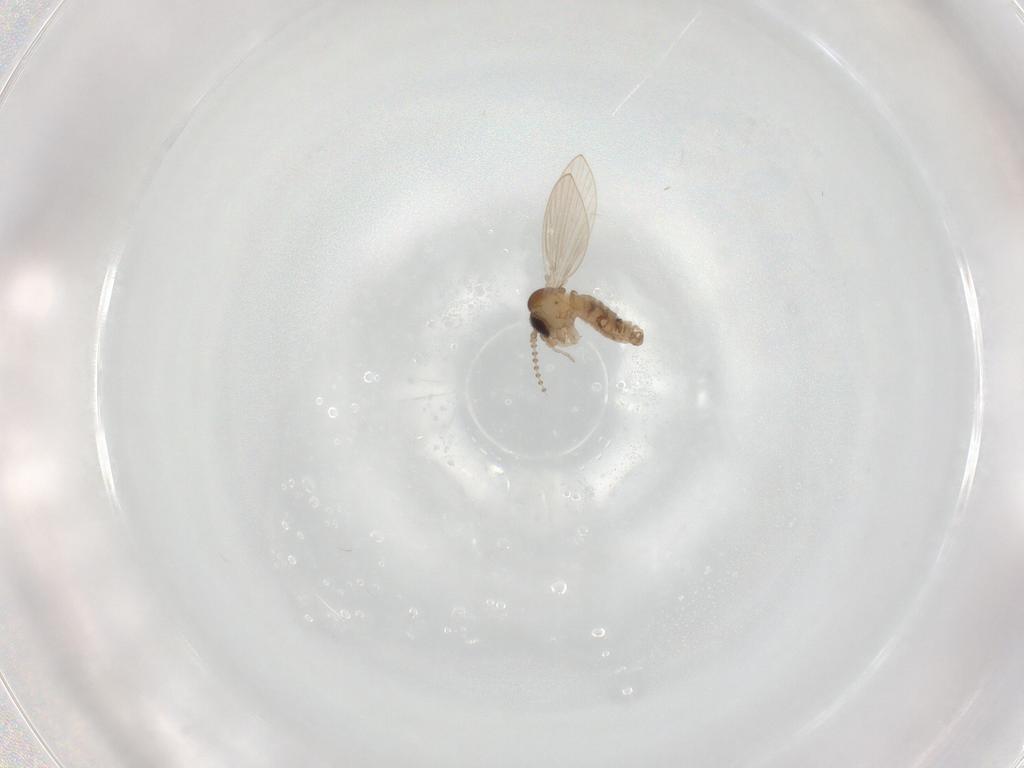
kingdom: Animalia
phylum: Arthropoda
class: Insecta
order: Diptera
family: Psychodidae
